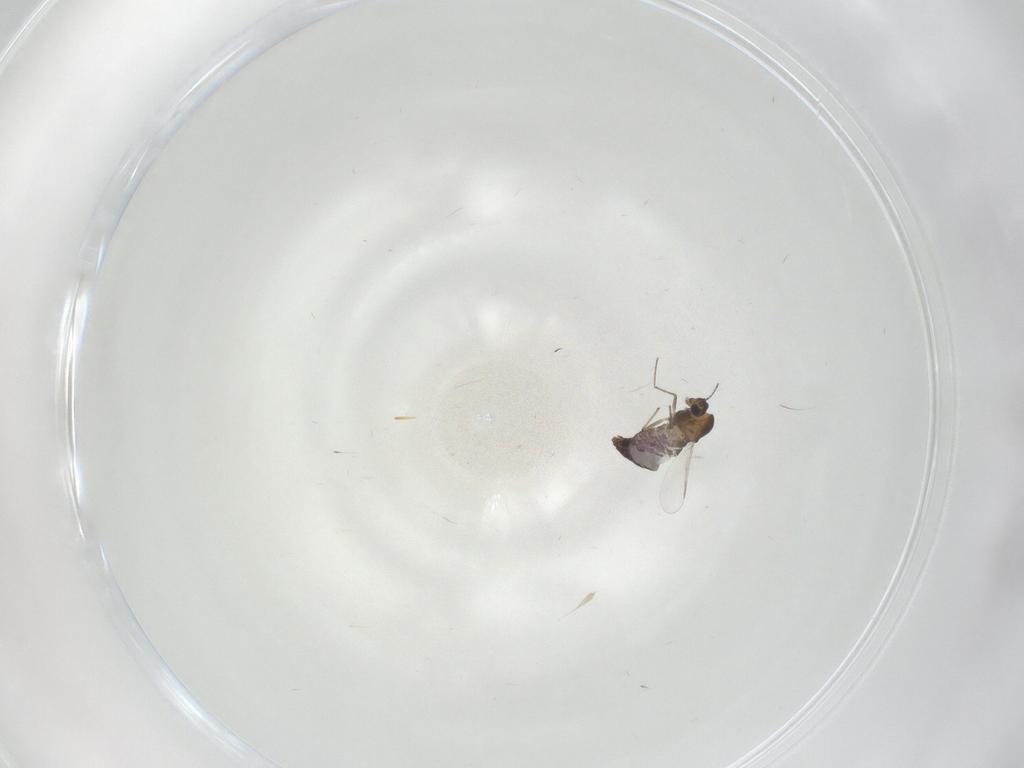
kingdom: Animalia
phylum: Arthropoda
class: Insecta
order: Diptera
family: Chironomidae
